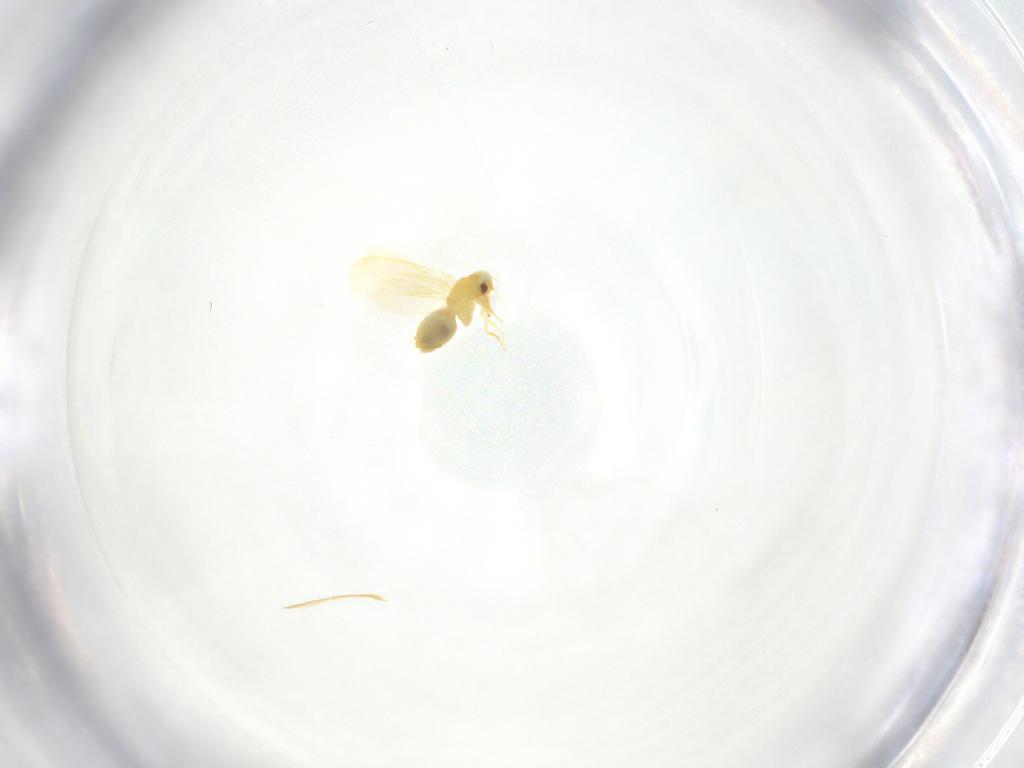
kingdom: Animalia
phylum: Arthropoda
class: Insecta
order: Hemiptera
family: Aleyrodidae
